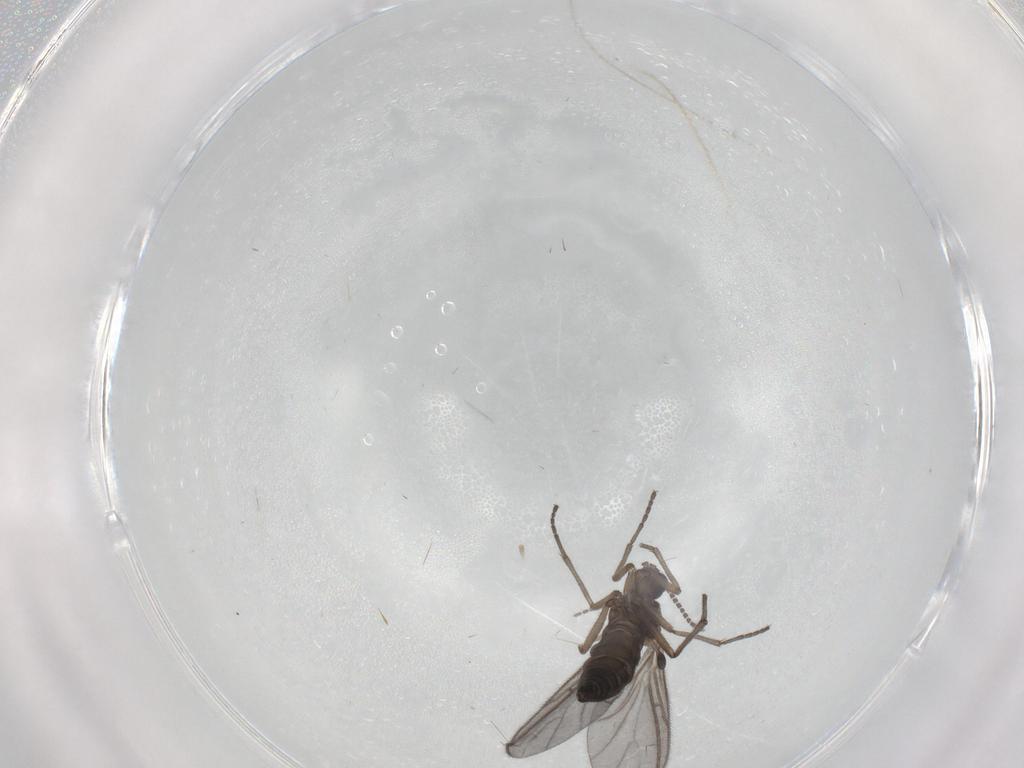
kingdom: Animalia
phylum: Arthropoda
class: Insecta
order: Diptera
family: Sciaridae
